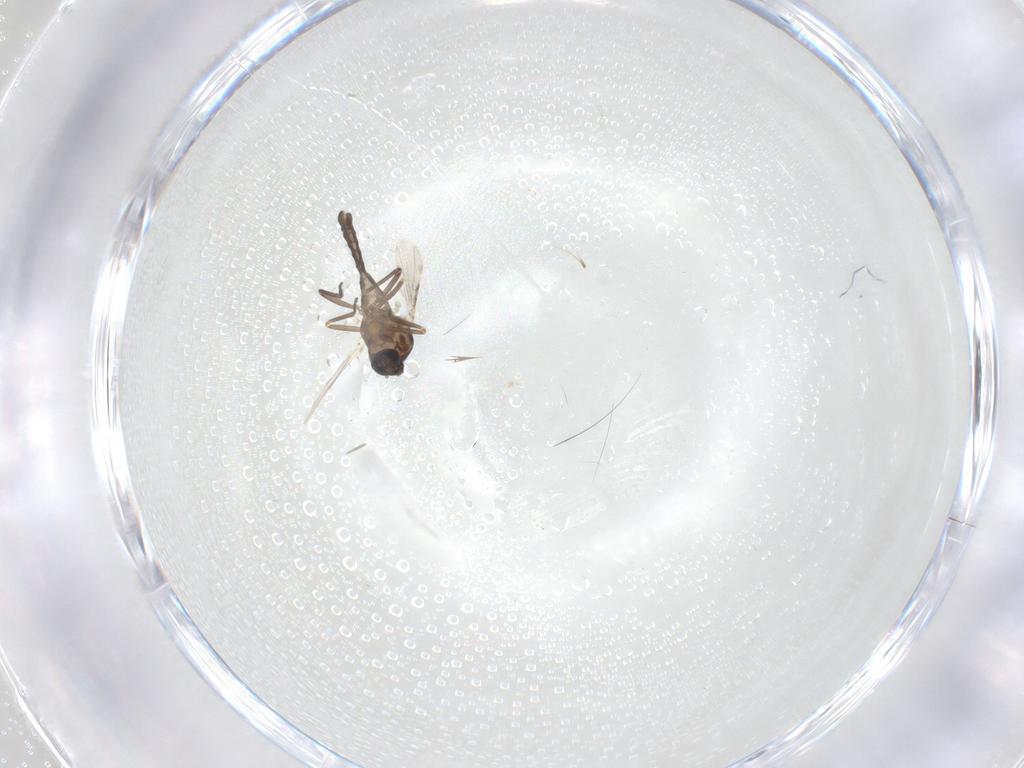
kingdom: Animalia
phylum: Arthropoda
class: Insecta
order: Diptera
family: Ceratopogonidae
